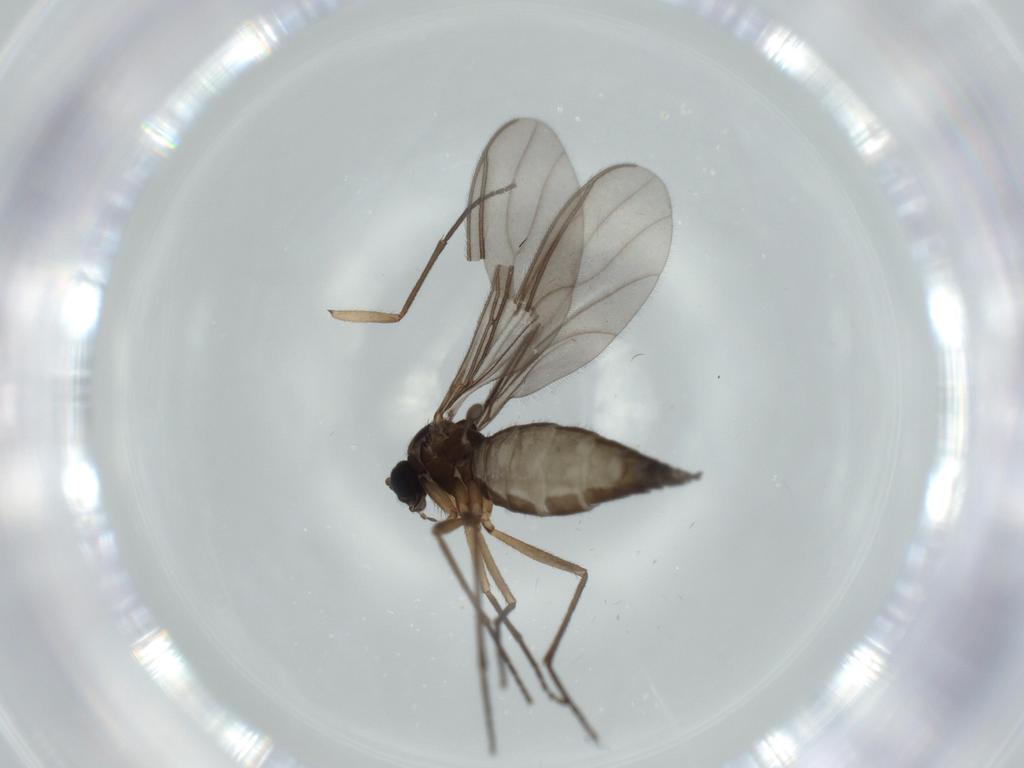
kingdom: Animalia
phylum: Arthropoda
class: Insecta
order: Diptera
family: Sciaridae
